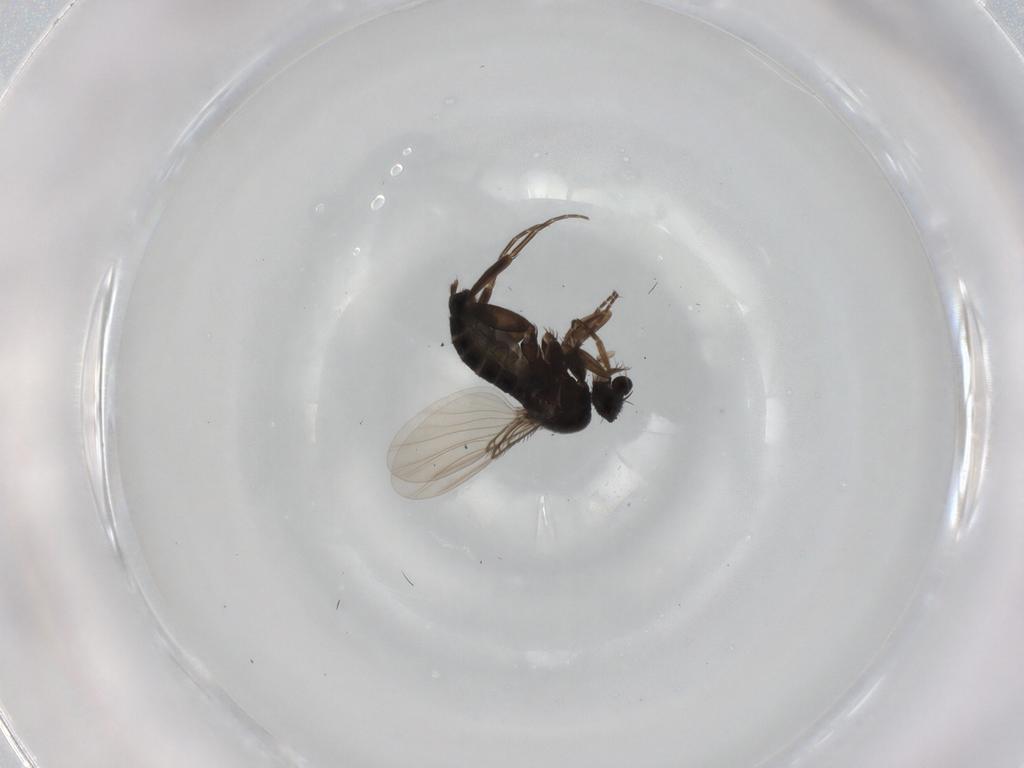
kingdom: Animalia
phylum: Arthropoda
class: Insecta
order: Diptera
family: Phoridae
